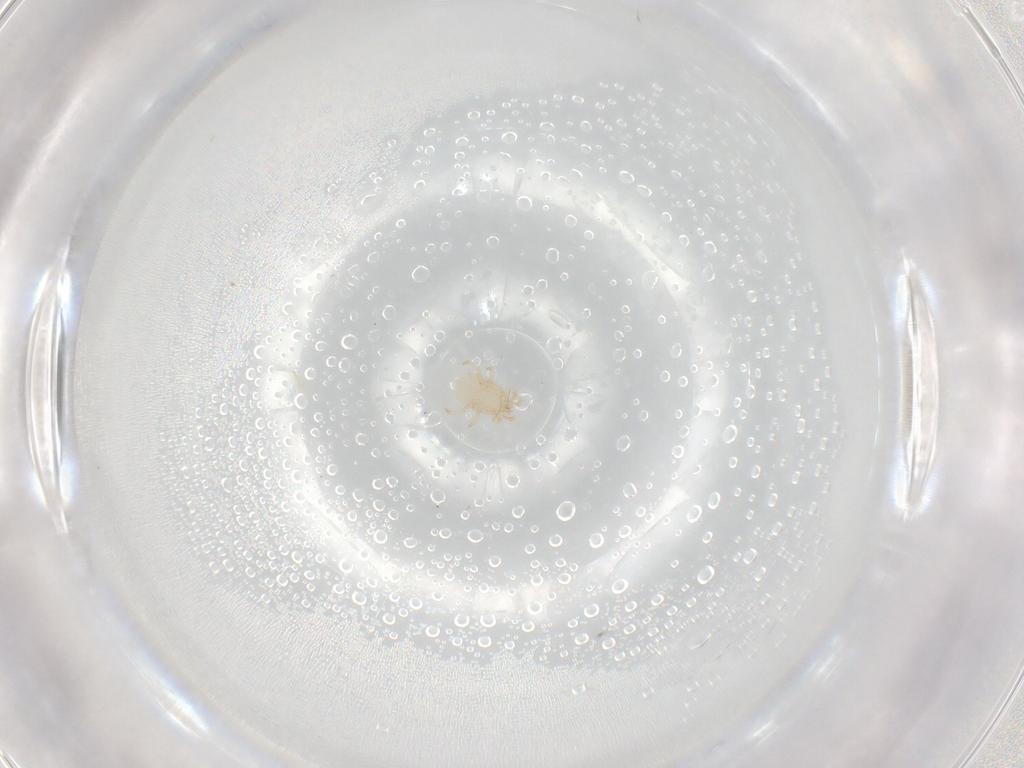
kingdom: Animalia
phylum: Arthropoda
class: Arachnida
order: Mesostigmata
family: Melicharidae
